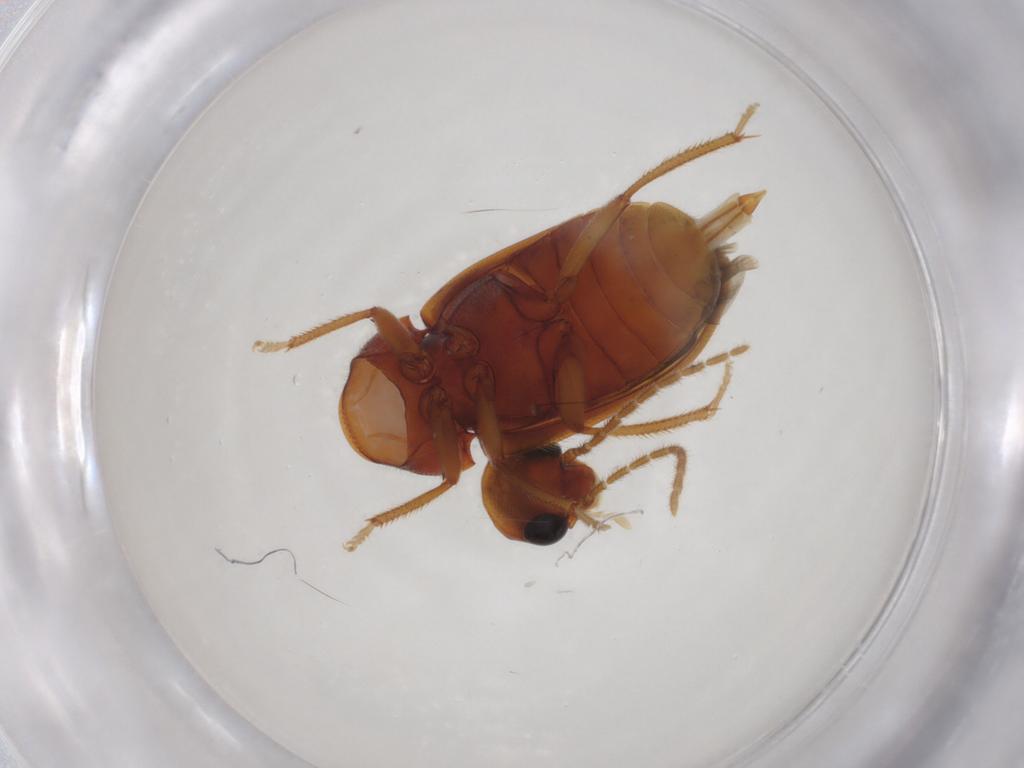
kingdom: Animalia
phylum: Arthropoda
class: Insecta
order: Coleoptera
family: Ptilodactylidae
